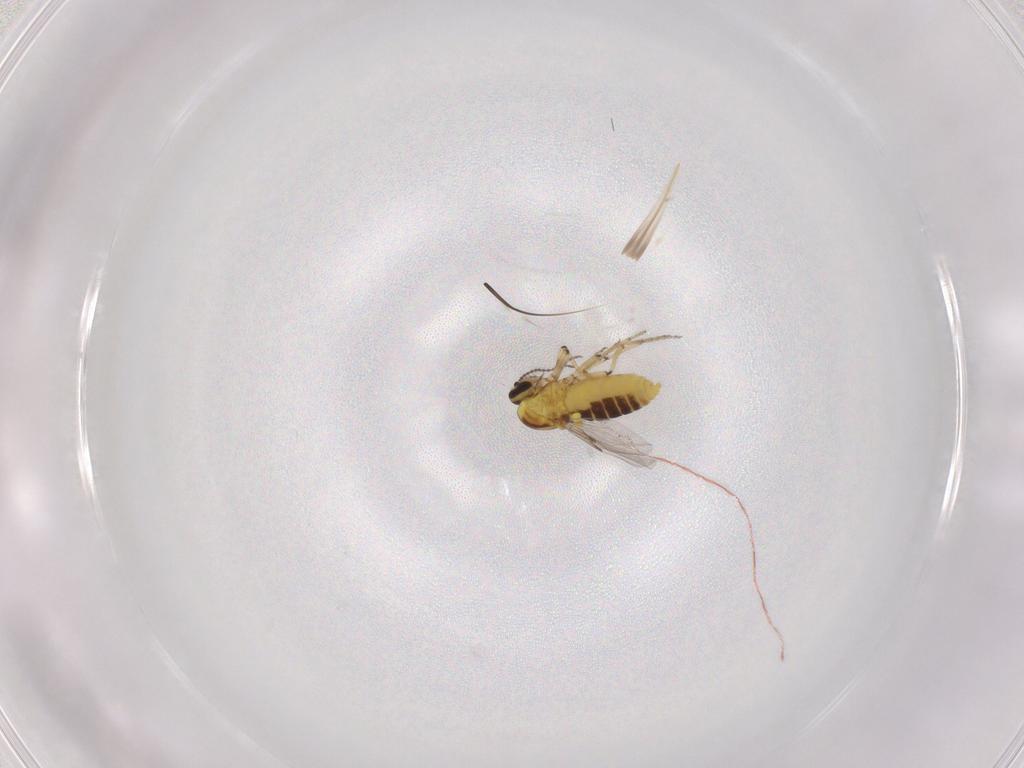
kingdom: Animalia
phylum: Arthropoda
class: Insecta
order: Diptera
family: Ceratopogonidae
